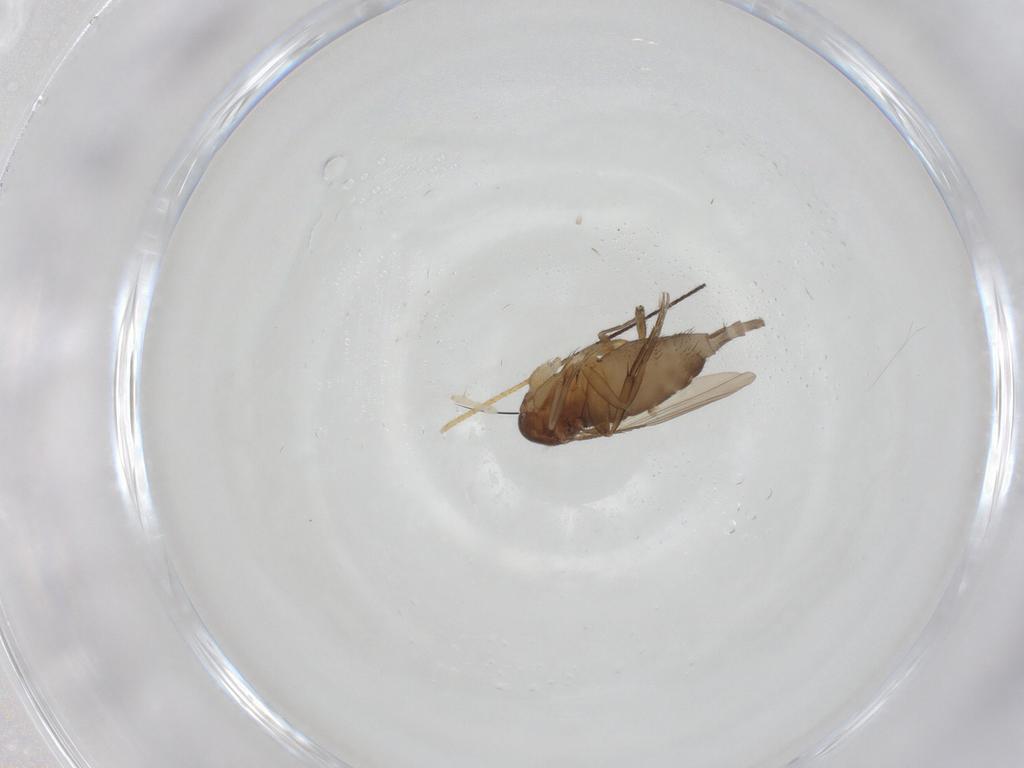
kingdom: Animalia
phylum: Arthropoda
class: Insecta
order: Diptera
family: Phoridae
